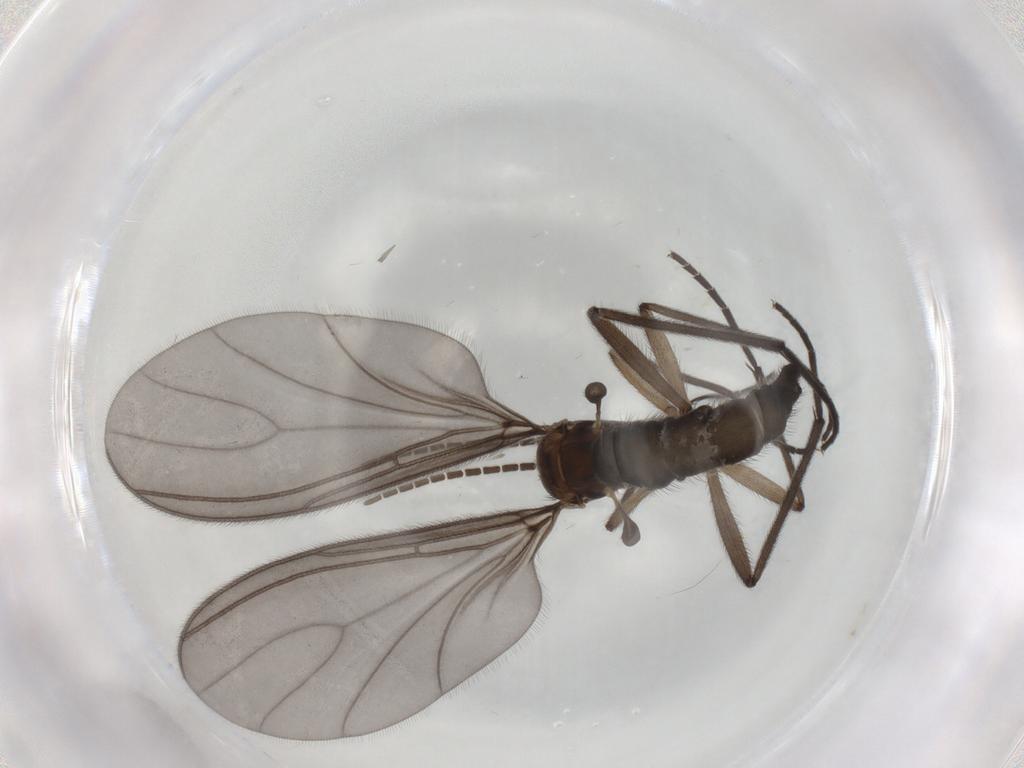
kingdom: Animalia
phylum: Arthropoda
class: Insecta
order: Diptera
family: Sciaridae
